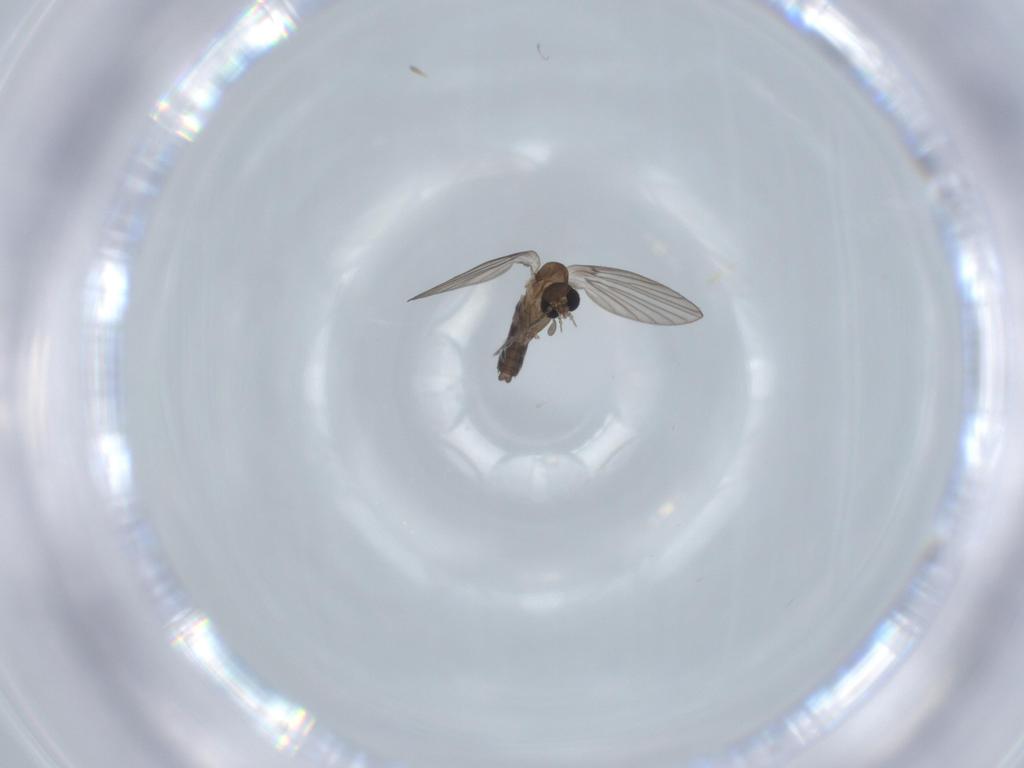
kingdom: Animalia
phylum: Arthropoda
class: Insecta
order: Diptera
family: Psychodidae
